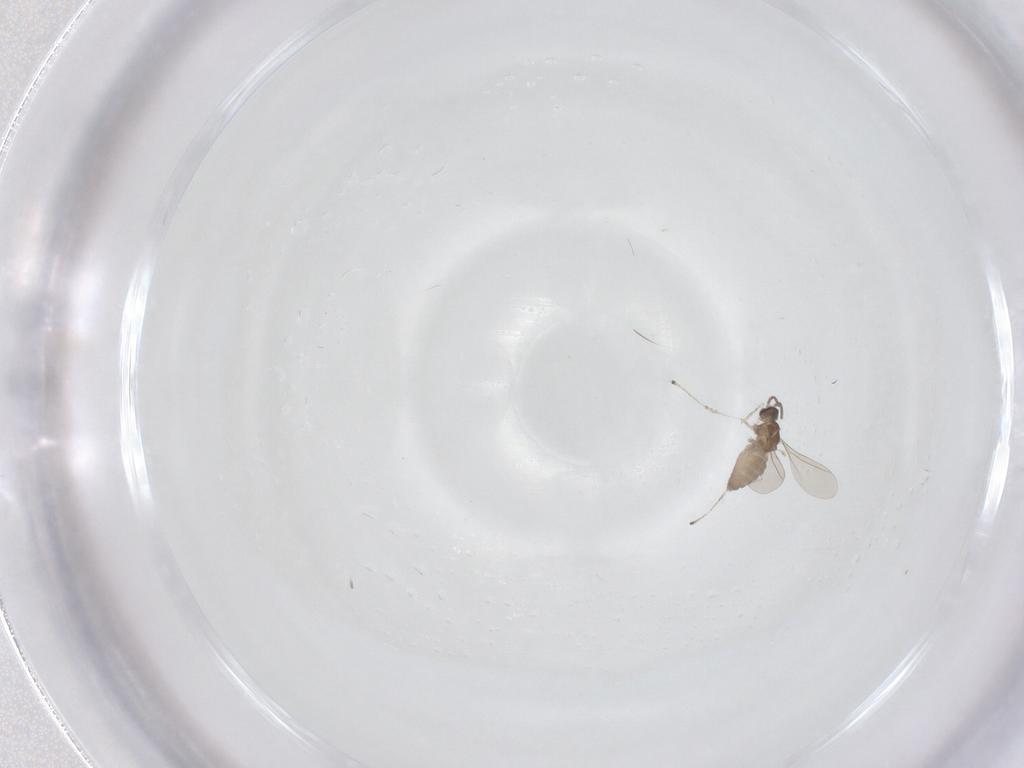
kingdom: Animalia
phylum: Arthropoda
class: Insecta
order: Diptera
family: Cecidomyiidae
